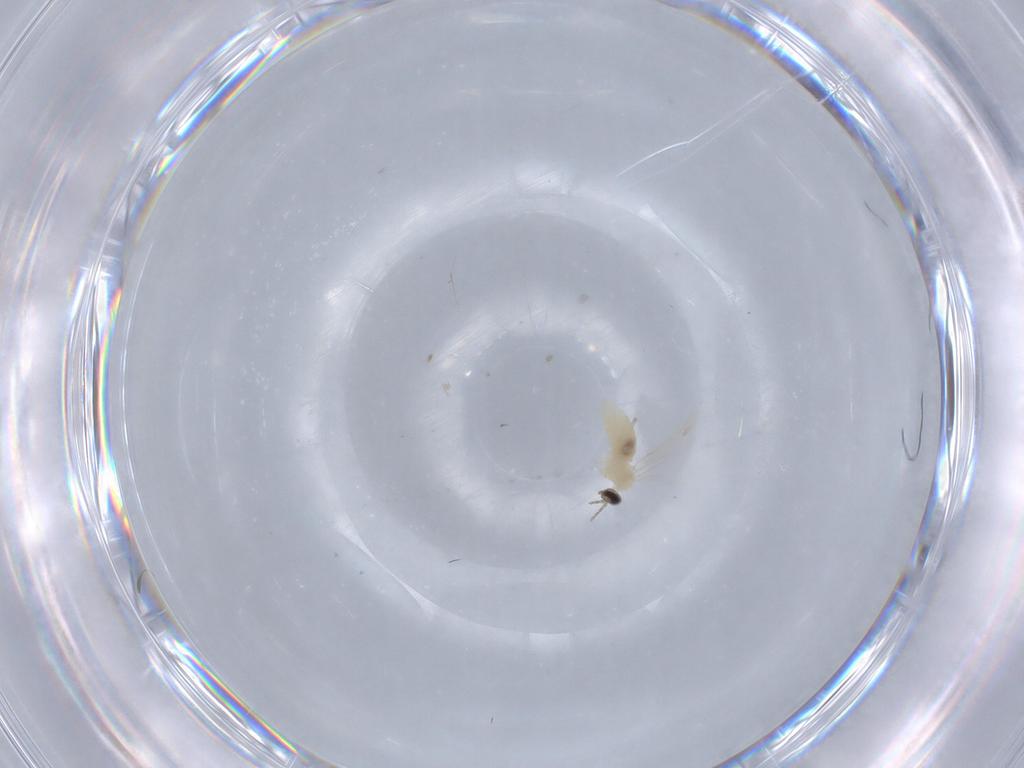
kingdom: Animalia
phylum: Arthropoda
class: Insecta
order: Diptera
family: Cecidomyiidae
